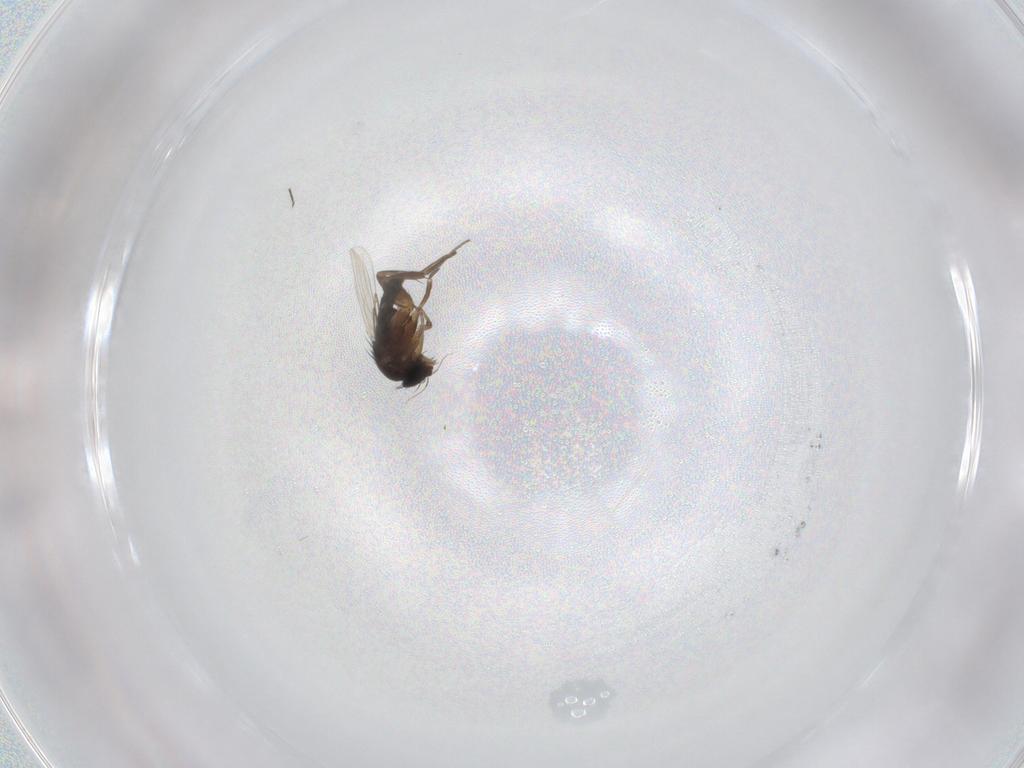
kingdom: Animalia
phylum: Arthropoda
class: Insecta
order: Diptera
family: Phoridae
